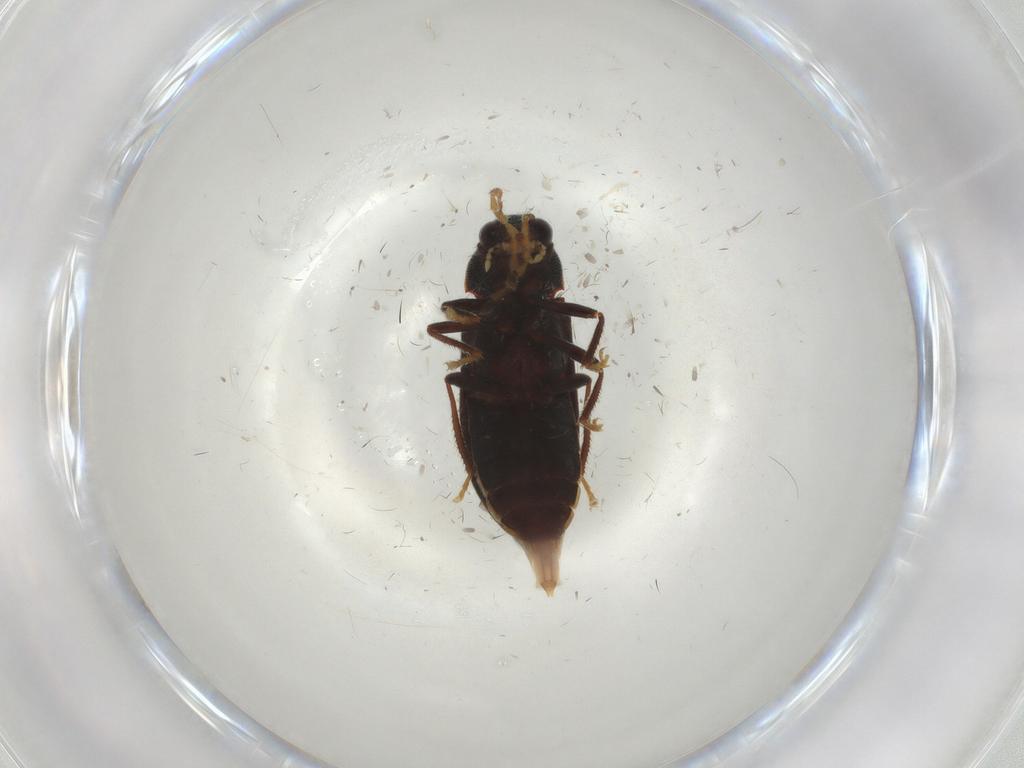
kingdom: Animalia
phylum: Arthropoda
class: Insecta
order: Coleoptera
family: Ptilodactylidae
